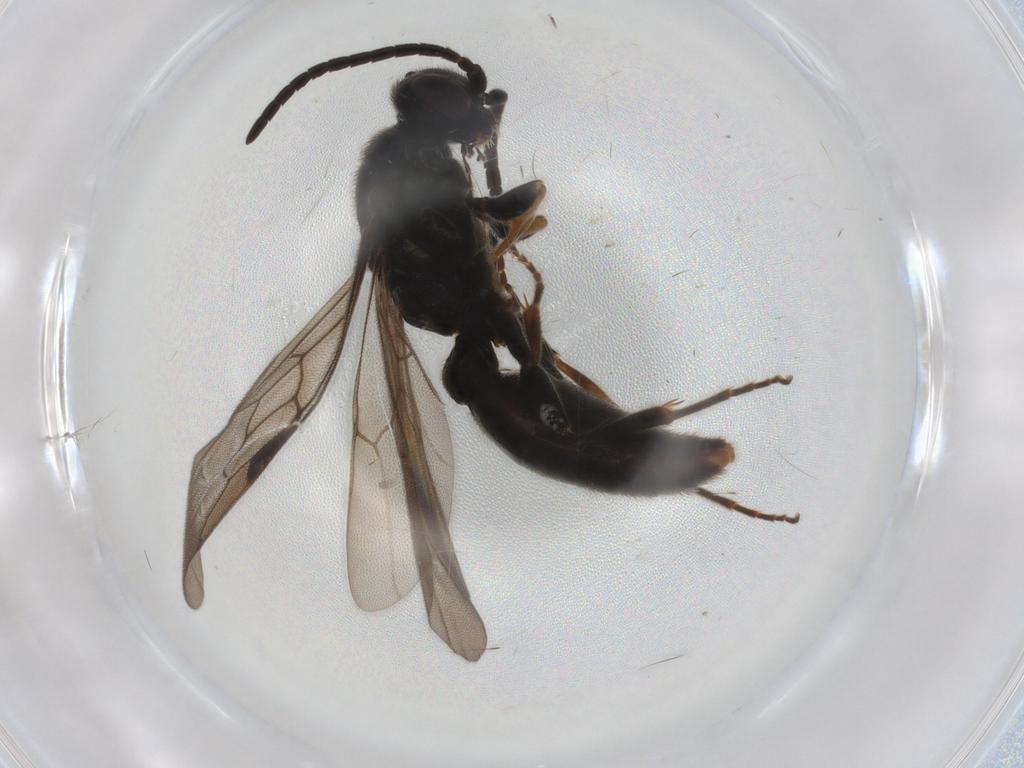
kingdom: Animalia
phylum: Arthropoda
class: Insecta
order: Hymenoptera
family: Sierolomorphidae
